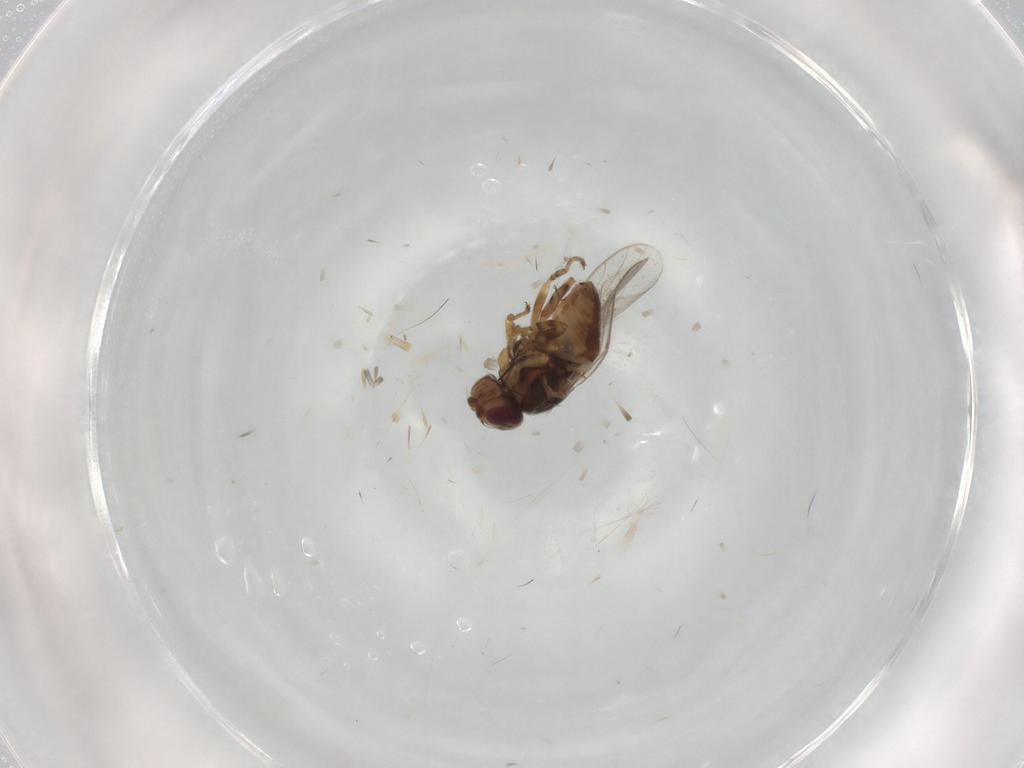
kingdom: Animalia
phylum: Arthropoda
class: Insecta
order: Diptera
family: Chloropidae
